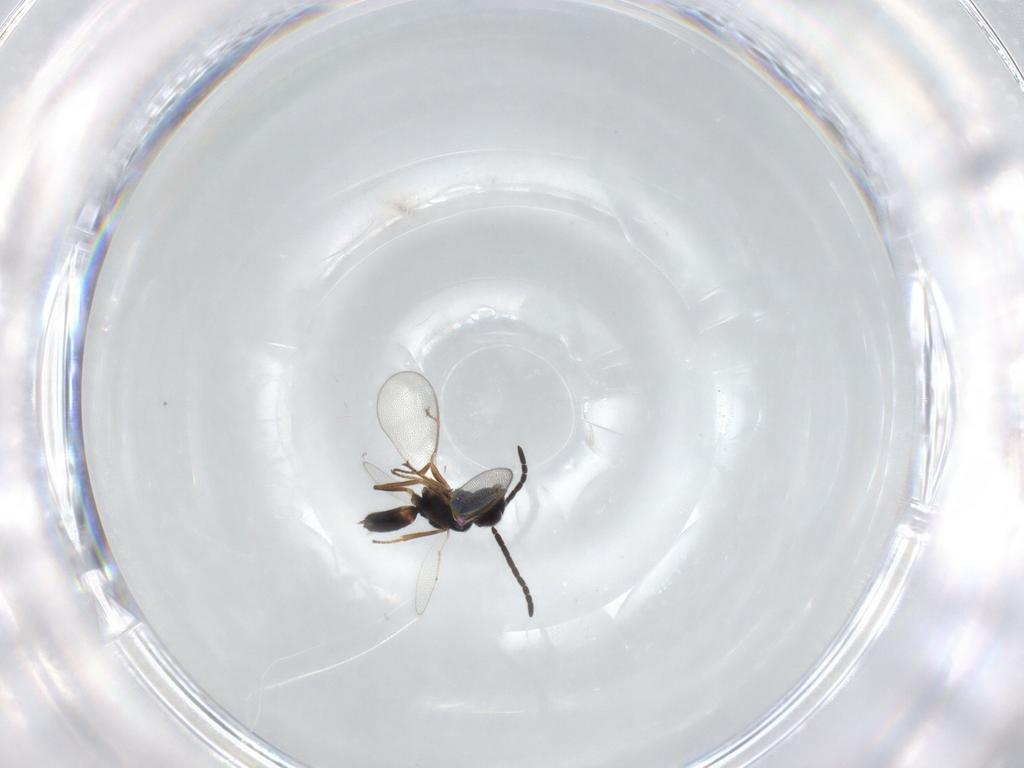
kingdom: Animalia
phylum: Arthropoda
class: Insecta
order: Hymenoptera
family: Pteromalidae
